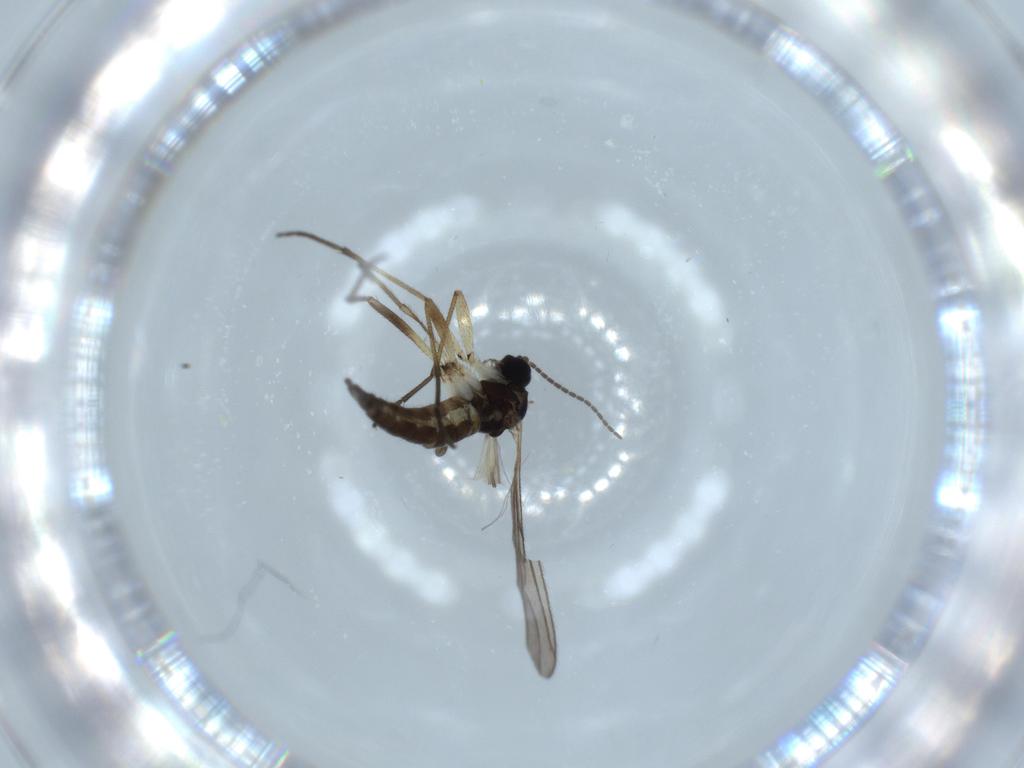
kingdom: Animalia
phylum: Arthropoda
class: Insecta
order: Diptera
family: Sciaridae
